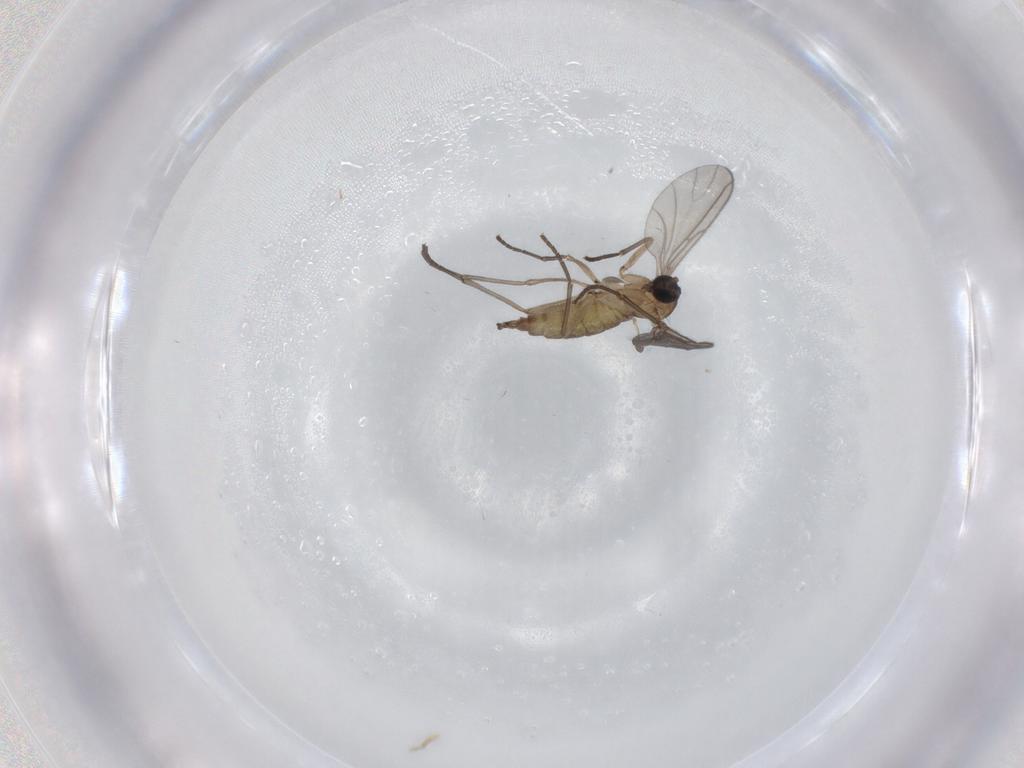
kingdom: Animalia
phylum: Arthropoda
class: Insecta
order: Diptera
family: Sciaridae
